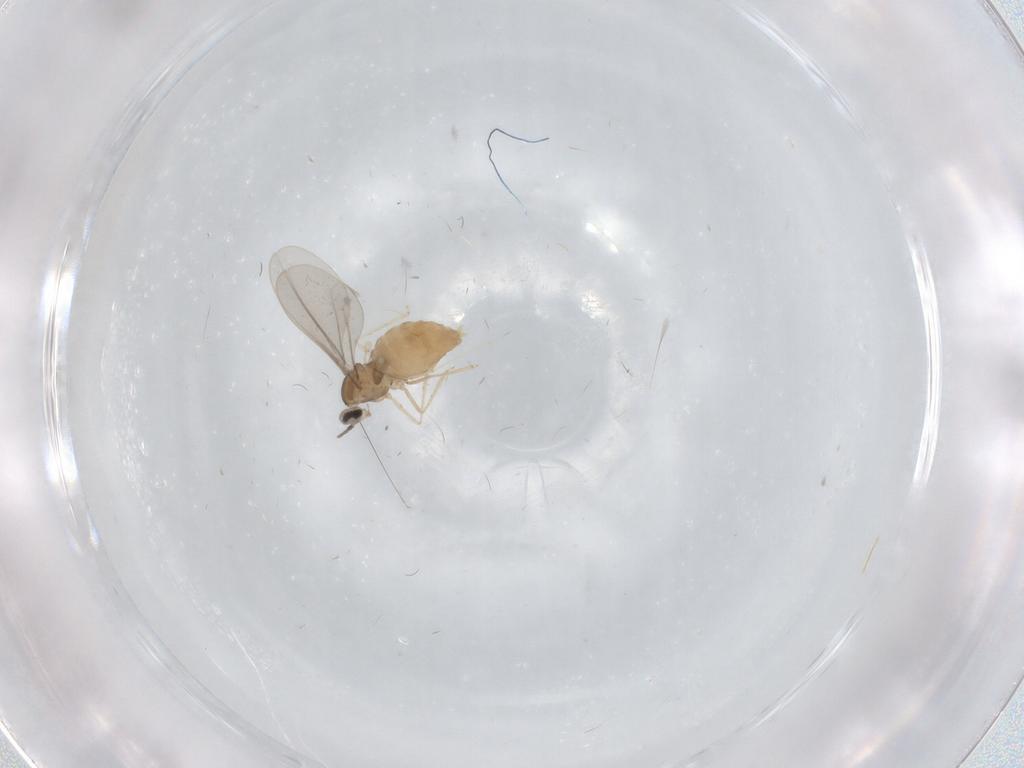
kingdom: Animalia
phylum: Arthropoda
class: Insecta
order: Diptera
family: Cecidomyiidae
